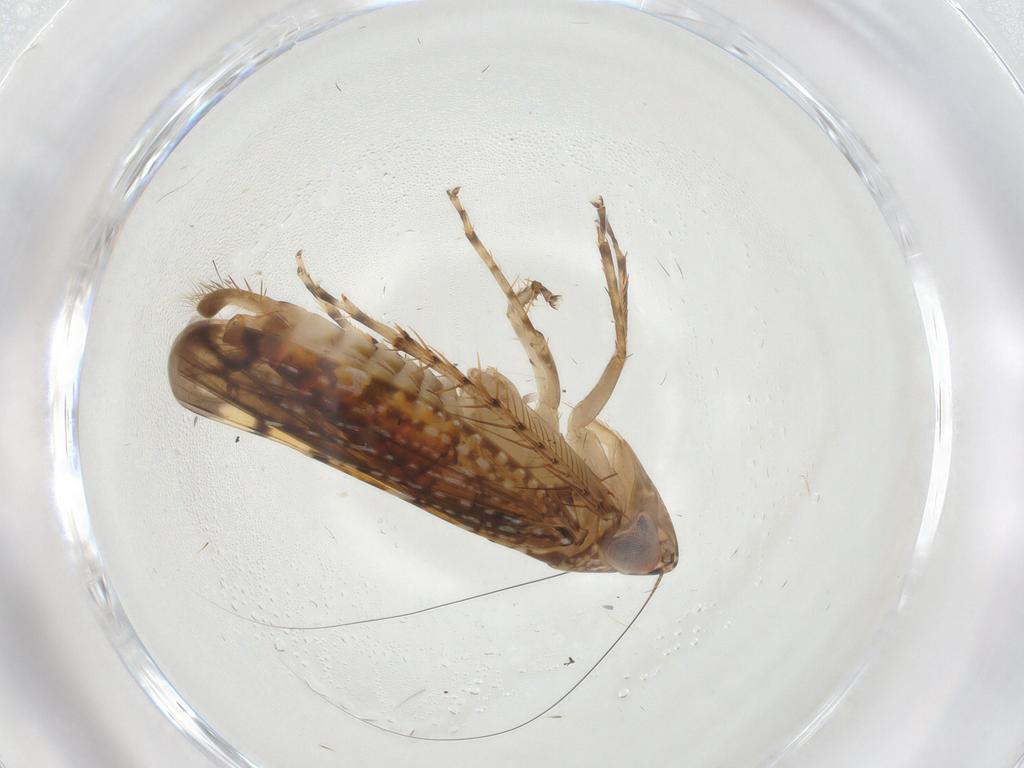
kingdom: Animalia
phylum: Arthropoda
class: Insecta
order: Hemiptera
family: Cicadellidae
